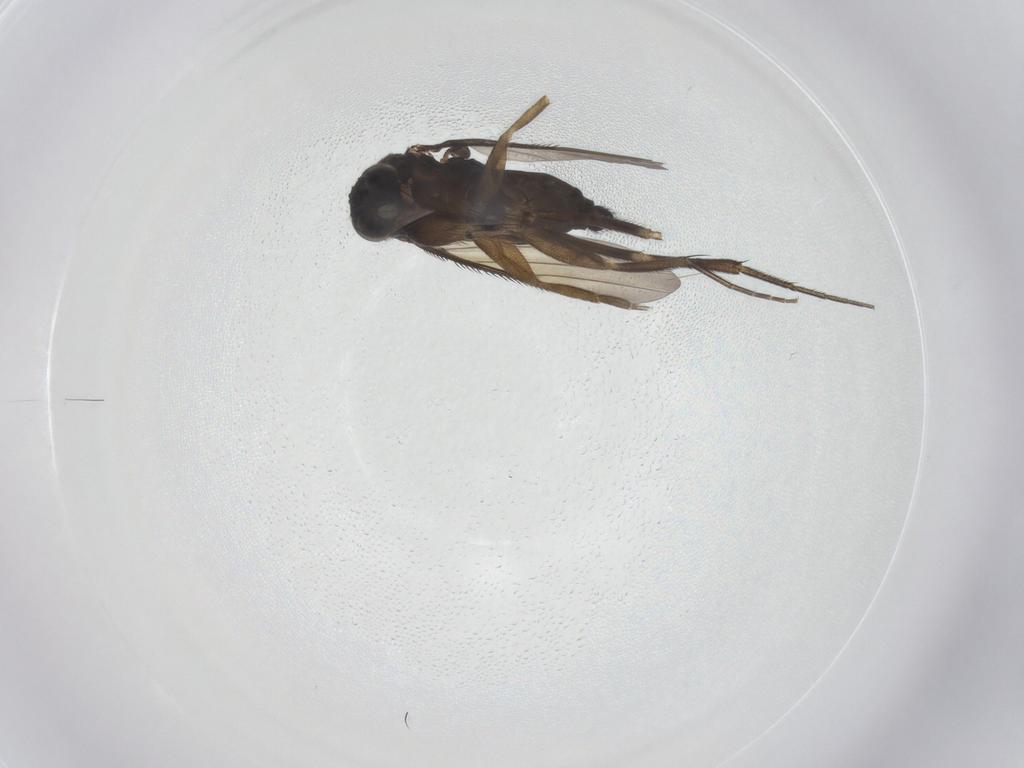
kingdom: Animalia
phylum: Arthropoda
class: Insecta
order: Diptera
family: Phoridae
